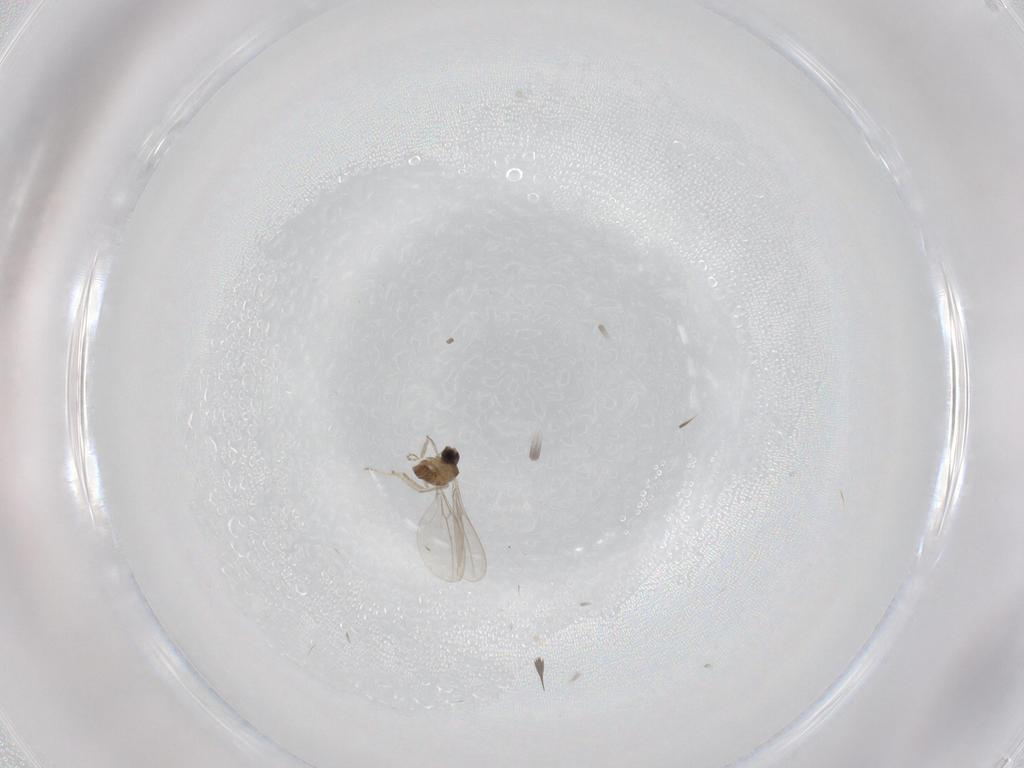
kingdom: Animalia
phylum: Arthropoda
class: Insecta
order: Diptera
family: Cecidomyiidae
